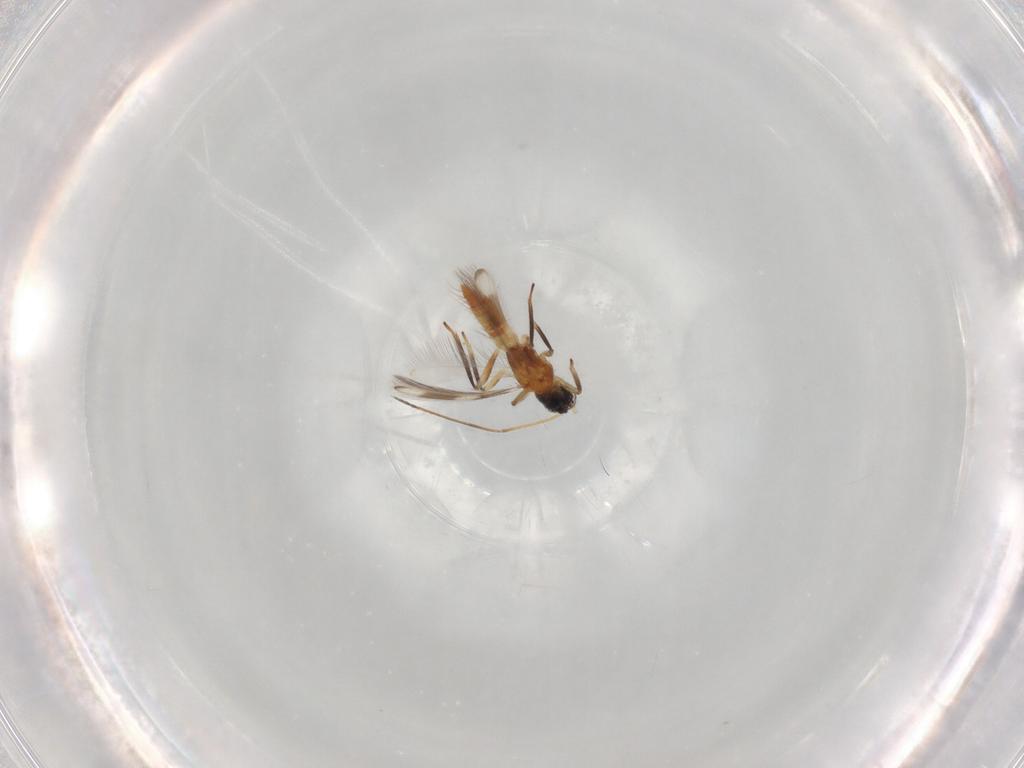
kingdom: Animalia
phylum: Arthropoda
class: Insecta
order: Thysanoptera
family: Aeolothripidae
